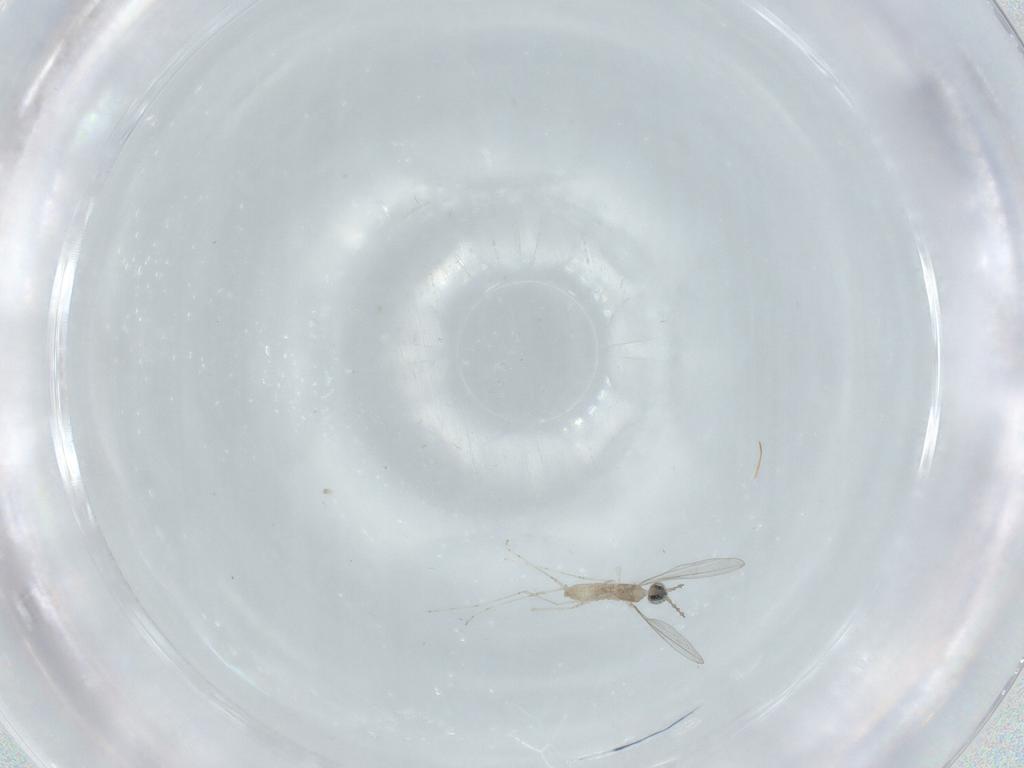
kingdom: Animalia
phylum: Arthropoda
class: Insecta
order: Diptera
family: Cecidomyiidae
